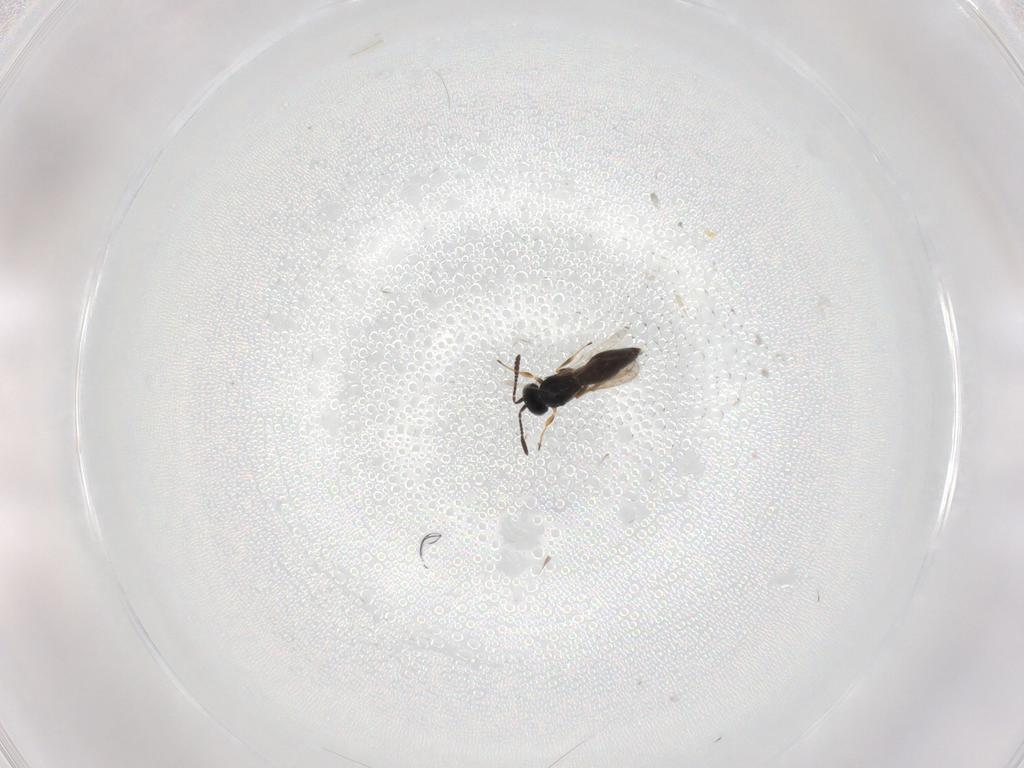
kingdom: Animalia
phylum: Arthropoda
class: Insecta
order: Hymenoptera
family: Scelionidae
